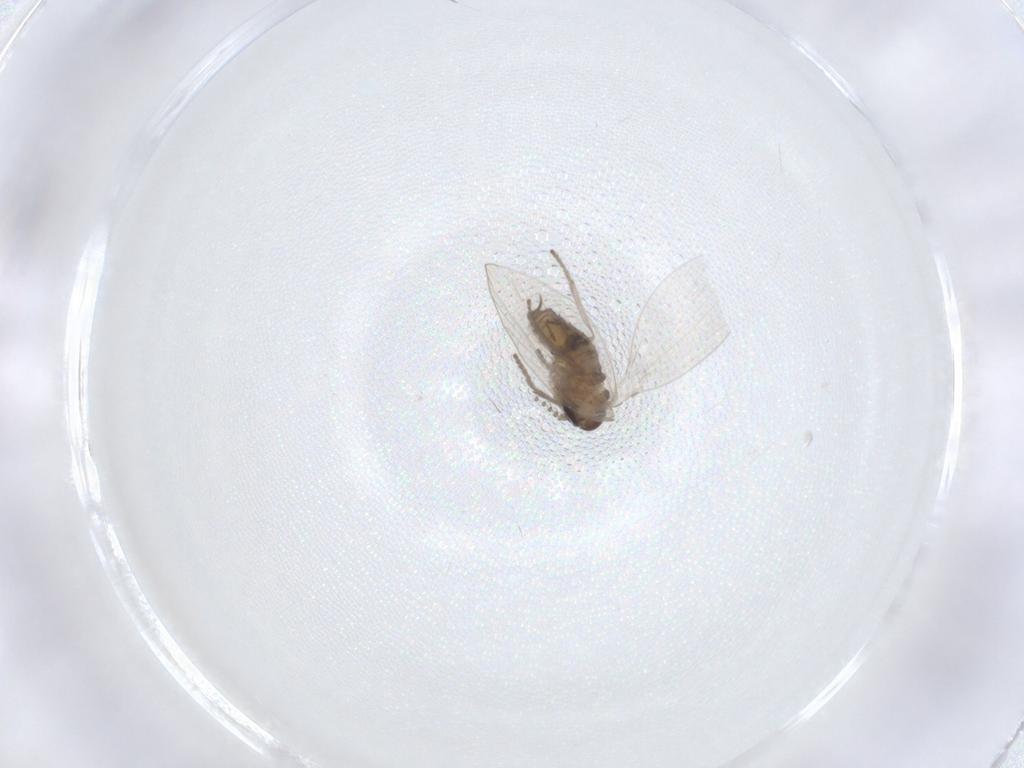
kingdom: Animalia
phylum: Arthropoda
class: Insecta
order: Diptera
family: Psychodidae
